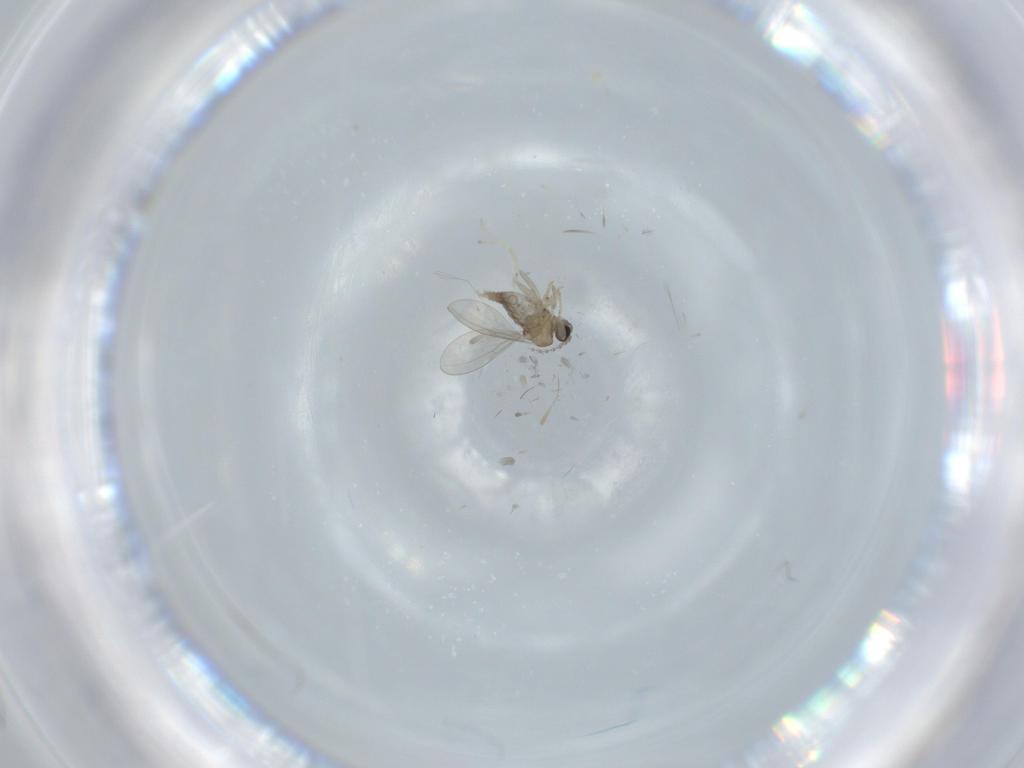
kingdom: Animalia
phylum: Arthropoda
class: Insecta
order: Diptera
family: Cecidomyiidae
